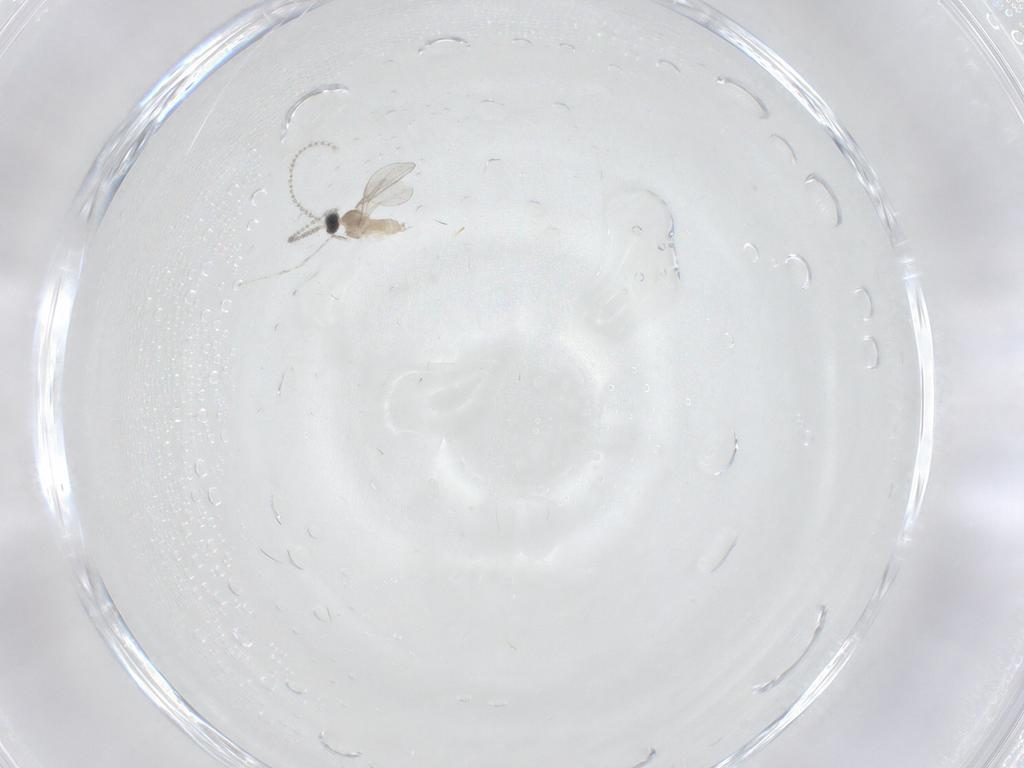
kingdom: Animalia
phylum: Arthropoda
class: Insecta
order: Diptera
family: Cecidomyiidae
